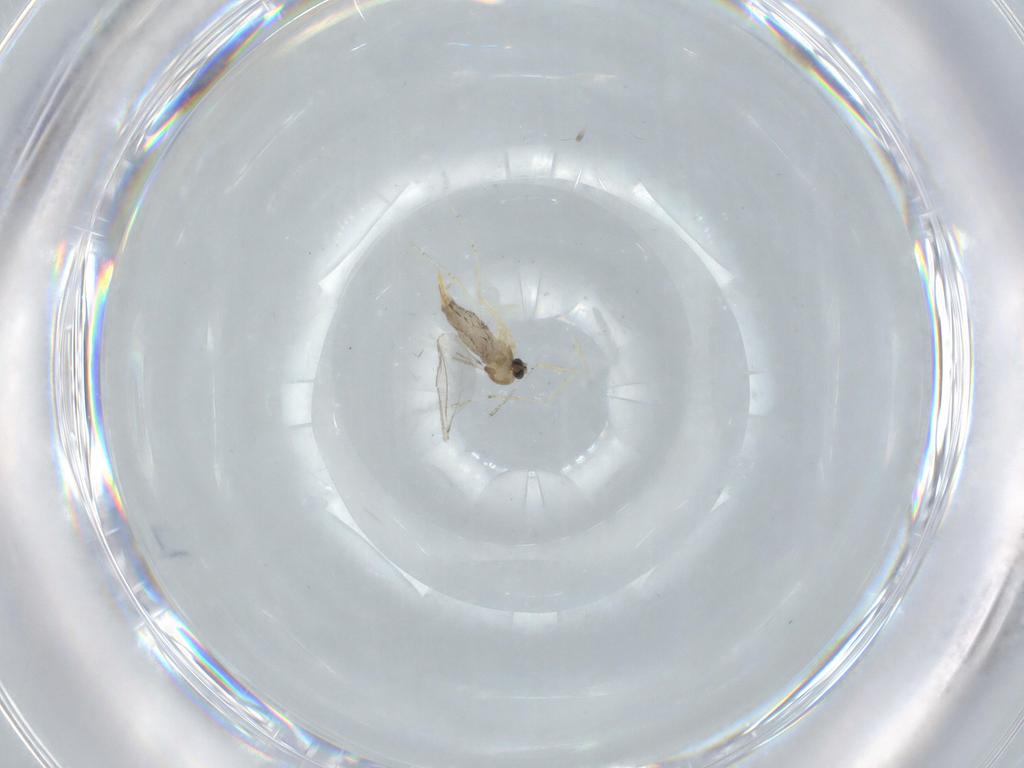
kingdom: Animalia
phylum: Arthropoda
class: Insecta
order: Diptera
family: Cecidomyiidae
